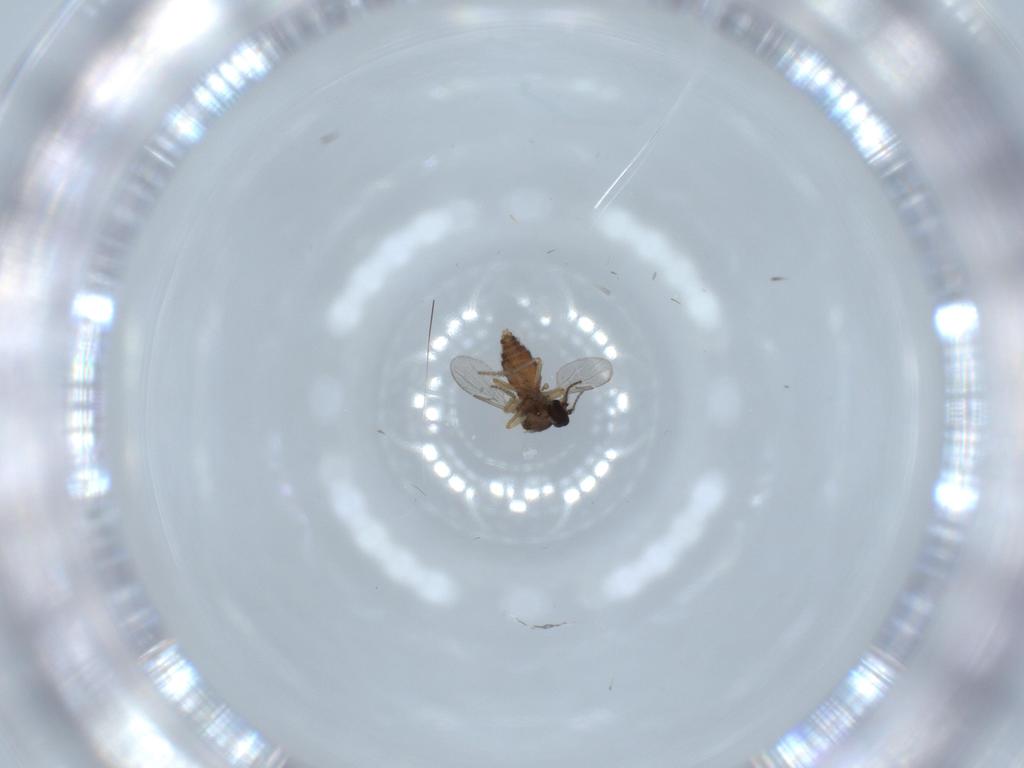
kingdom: Animalia
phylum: Arthropoda
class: Insecta
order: Diptera
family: Ceratopogonidae
